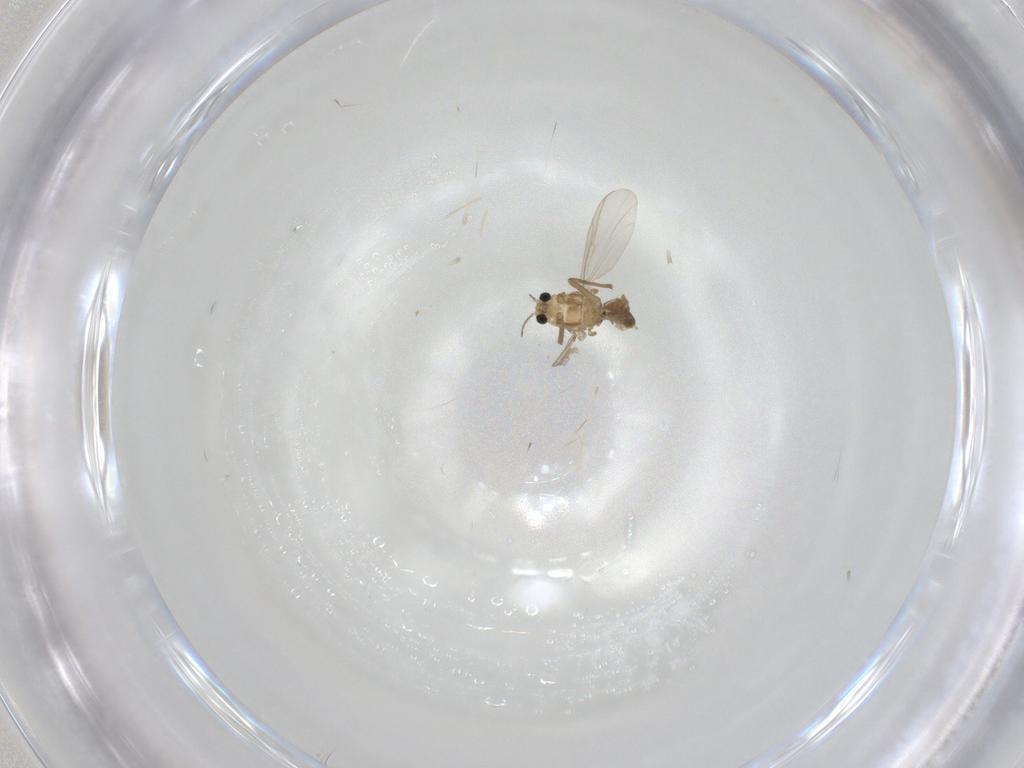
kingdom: Animalia
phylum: Arthropoda
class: Insecta
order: Diptera
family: Chironomidae
